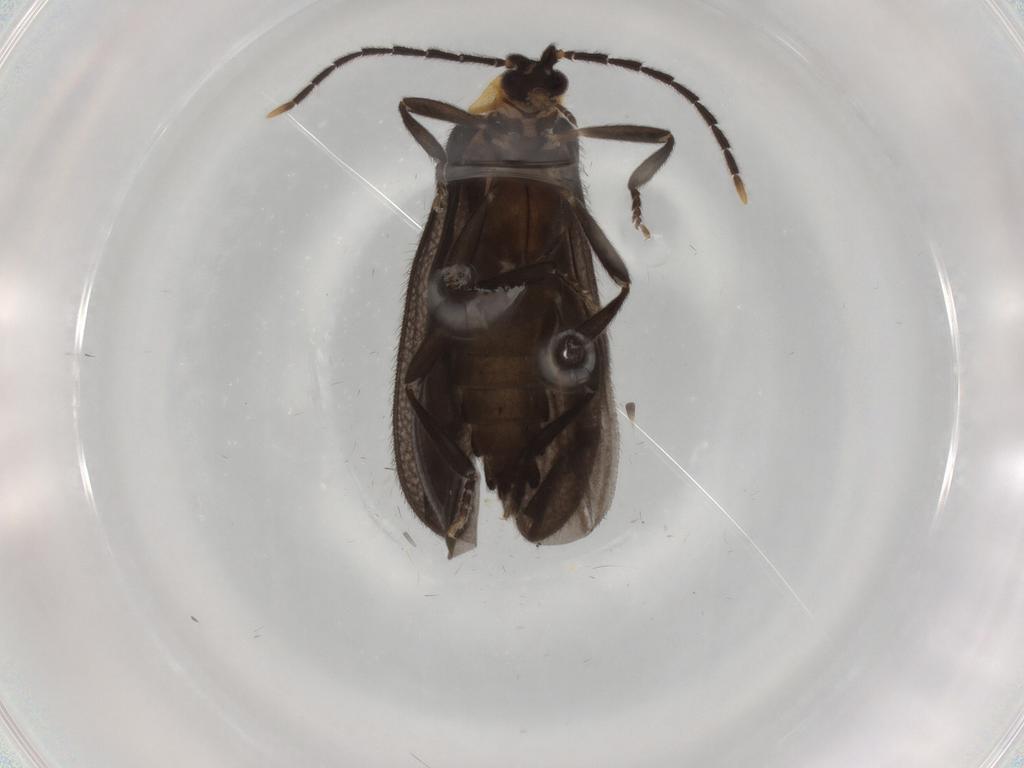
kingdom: Animalia
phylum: Arthropoda
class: Insecta
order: Coleoptera
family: Lycidae
